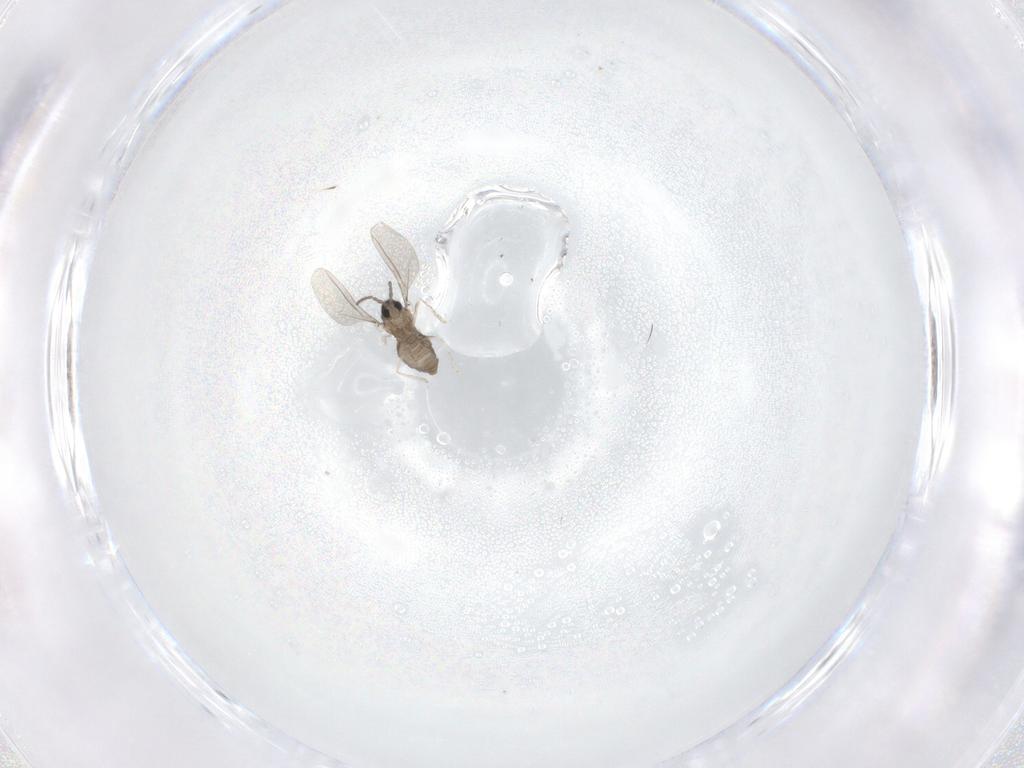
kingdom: Animalia
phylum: Arthropoda
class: Insecta
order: Diptera
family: Cecidomyiidae
